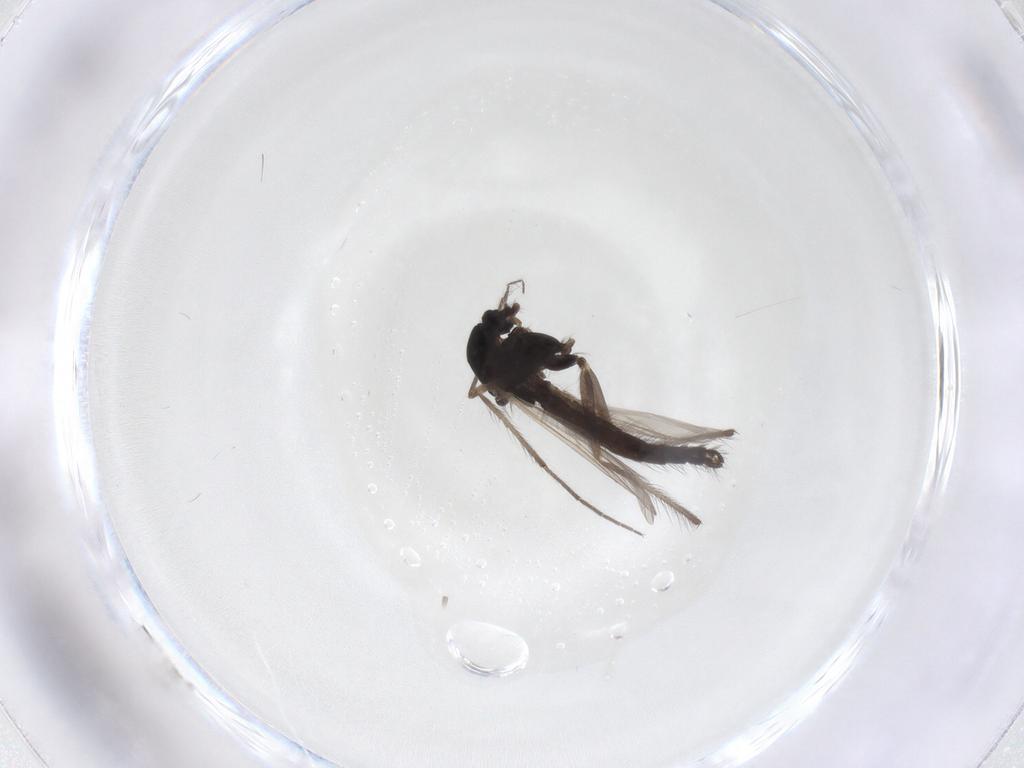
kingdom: Animalia
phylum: Arthropoda
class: Insecta
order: Diptera
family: Chironomidae
